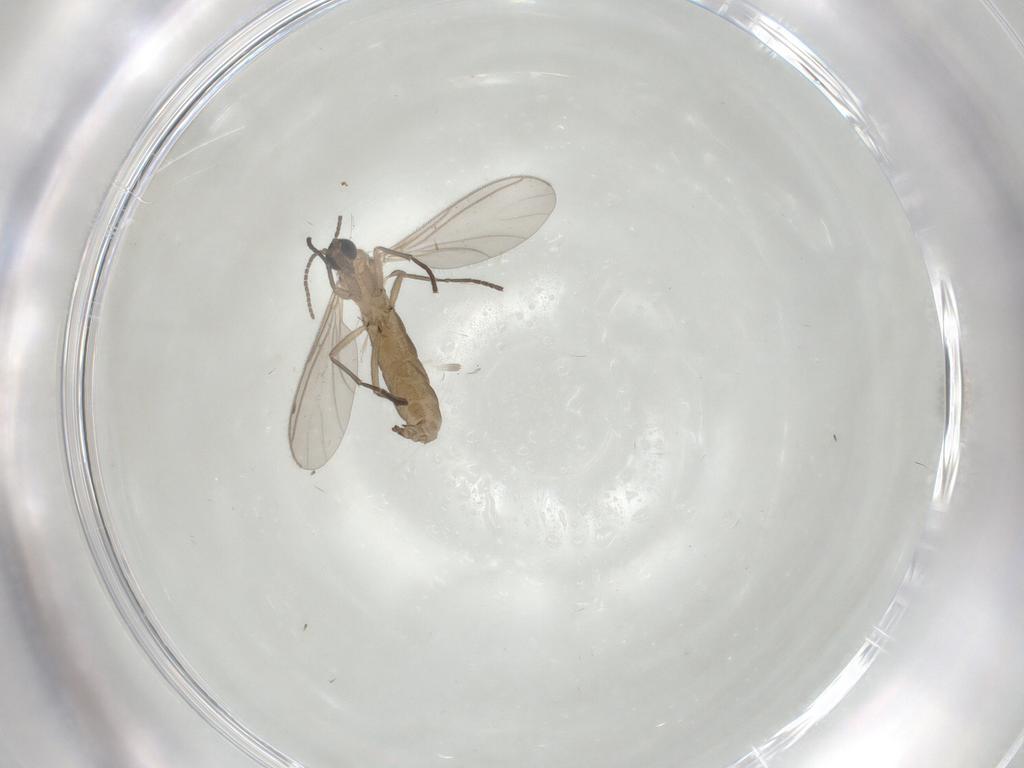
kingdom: Animalia
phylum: Arthropoda
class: Insecta
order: Diptera
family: Sciaridae
